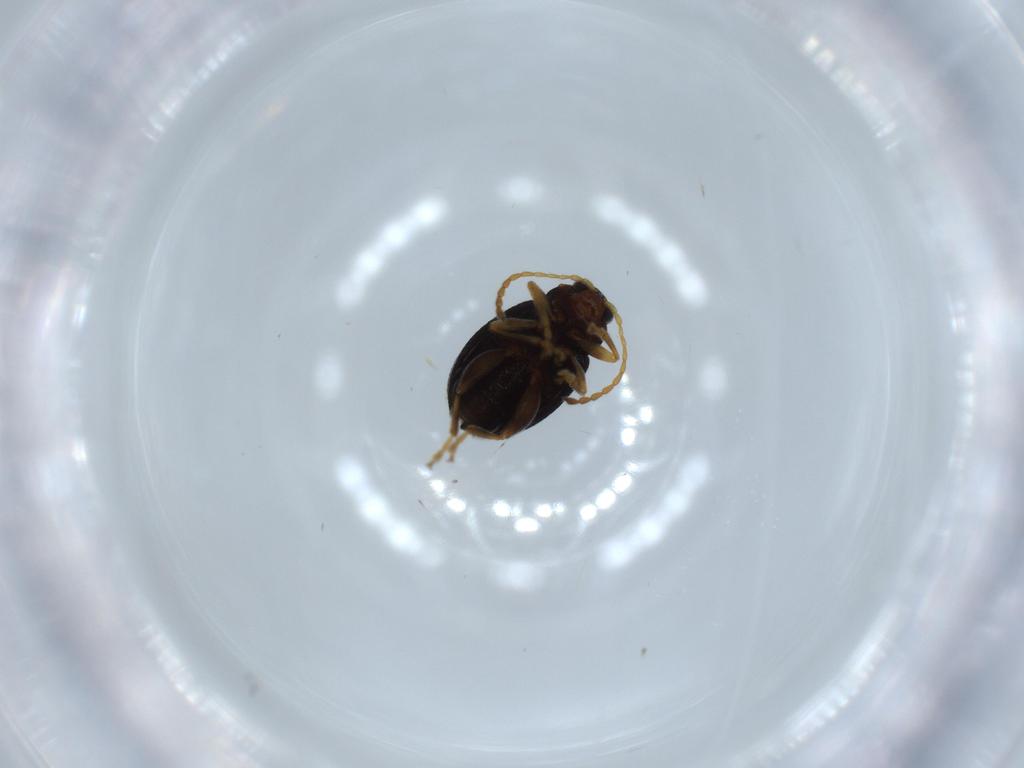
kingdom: Animalia
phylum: Arthropoda
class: Insecta
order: Coleoptera
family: Chrysomelidae
